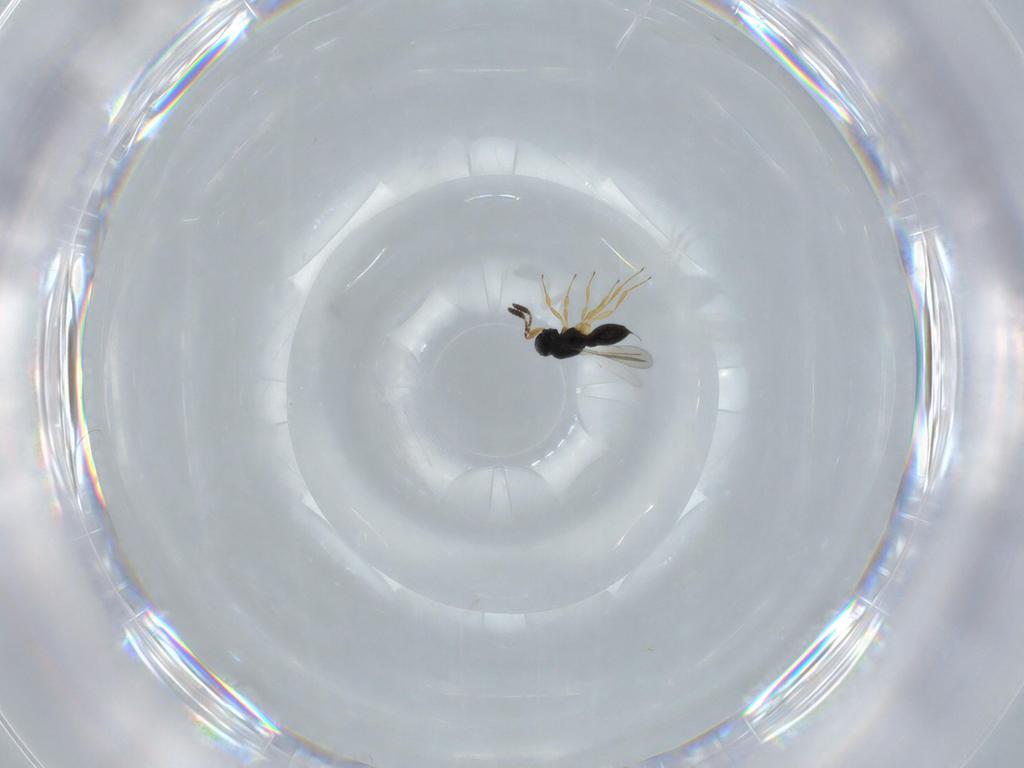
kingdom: Animalia
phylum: Arthropoda
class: Insecta
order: Hymenoptera
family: Scelionidae
